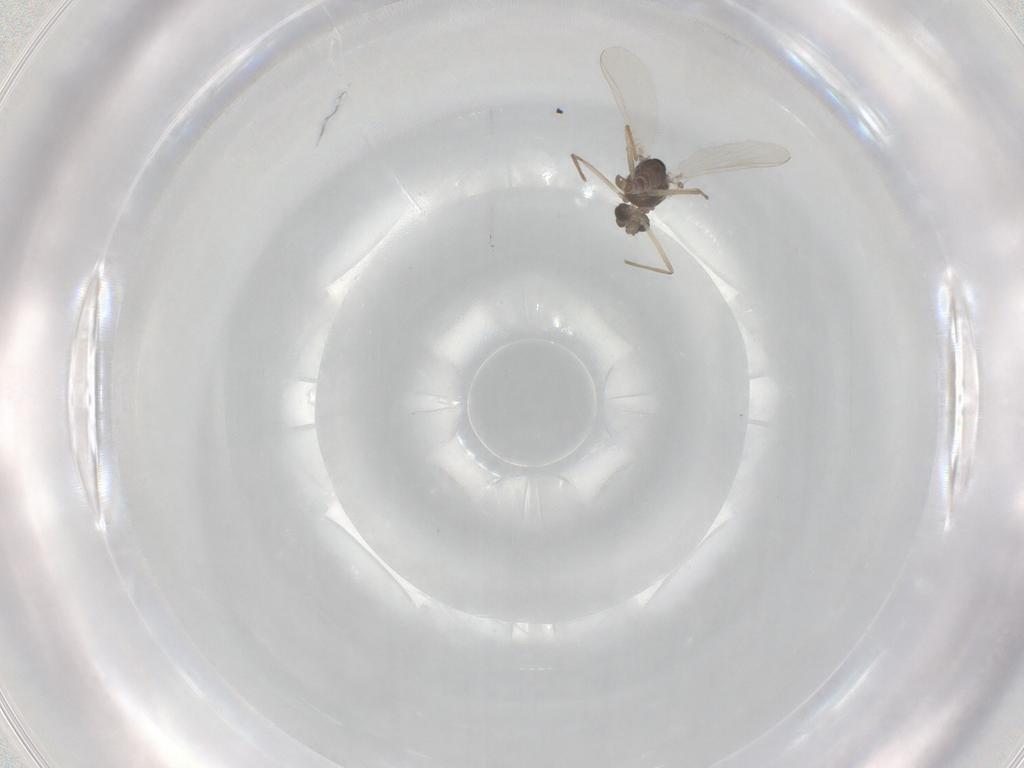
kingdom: Animalia
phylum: Arthropoda
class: Insecta
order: Diptera
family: Chironomidae
